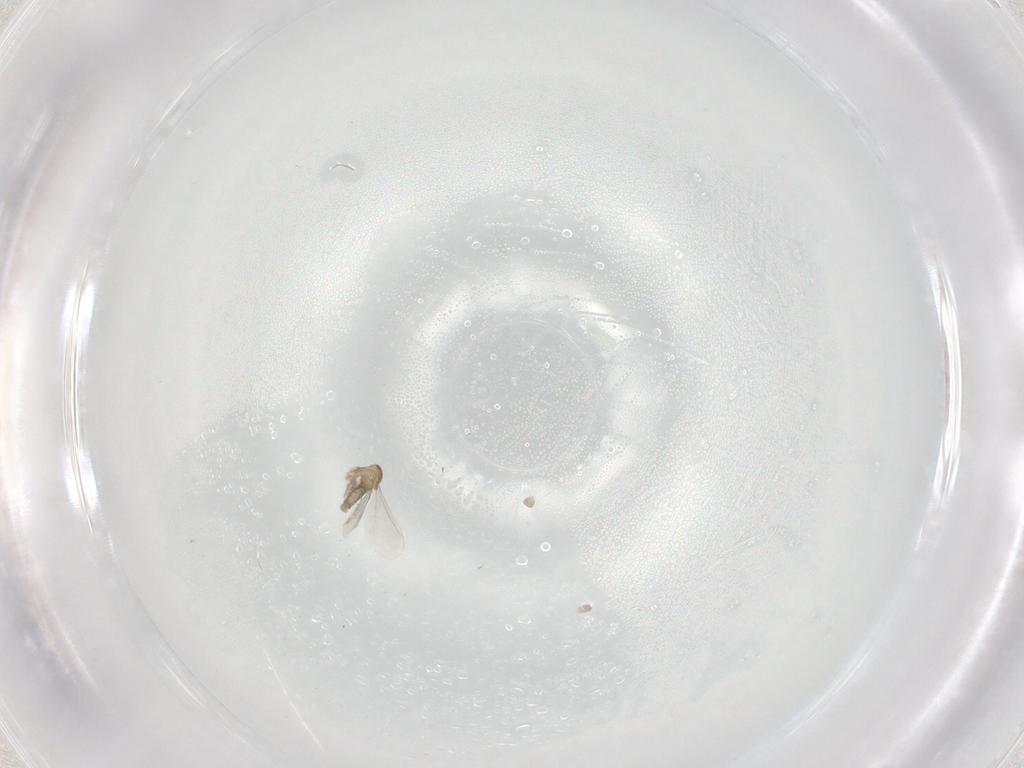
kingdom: Animalia
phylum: Arthropoda
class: Insecta
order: Diptera
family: Cecidomyiidae
